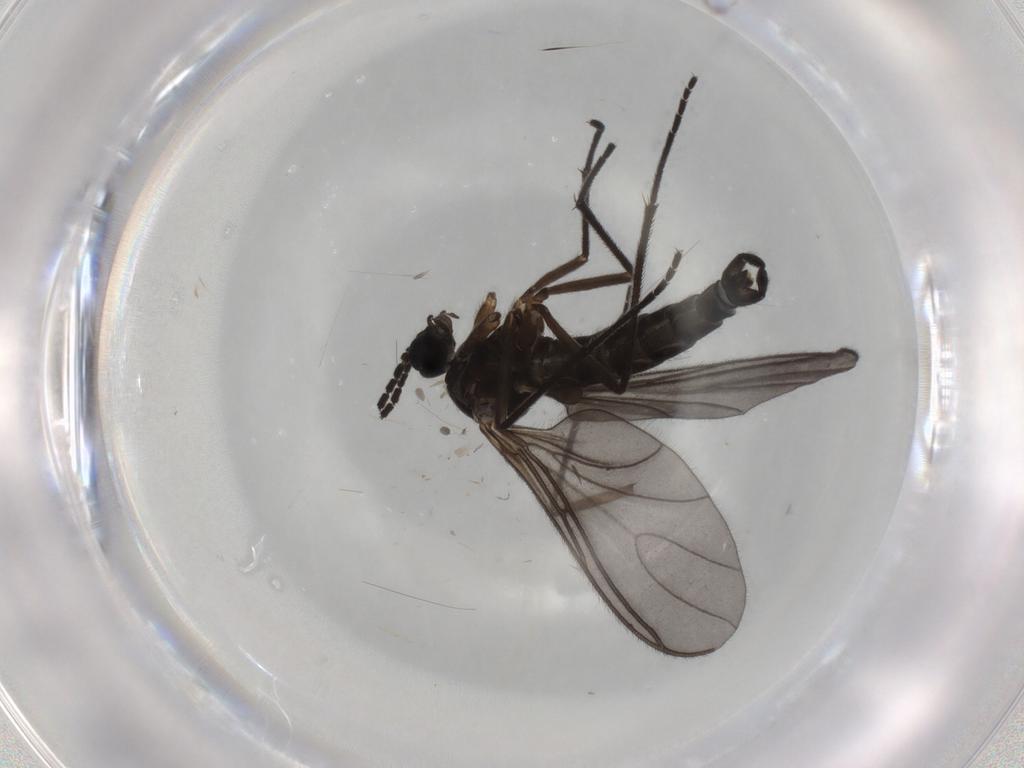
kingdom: Animalia
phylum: Arthropoda
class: Insecta
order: Diptera
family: Sciaridae
